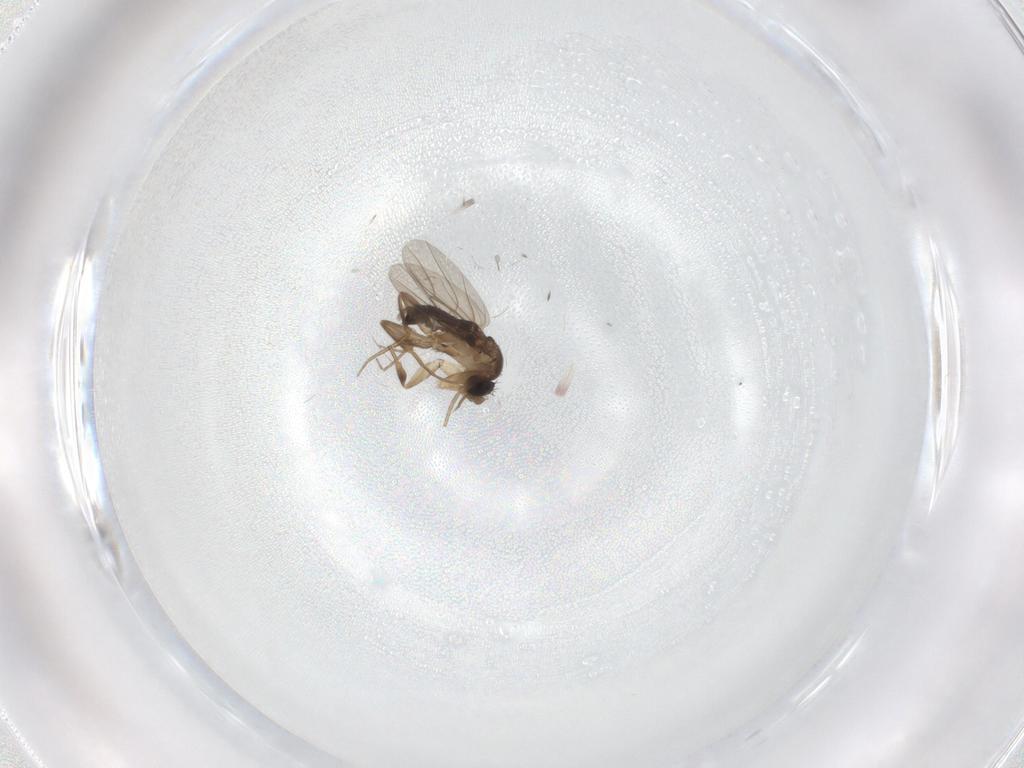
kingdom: Animalia
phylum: Arthropoda
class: Insecta
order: Diptera
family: Phoridae
